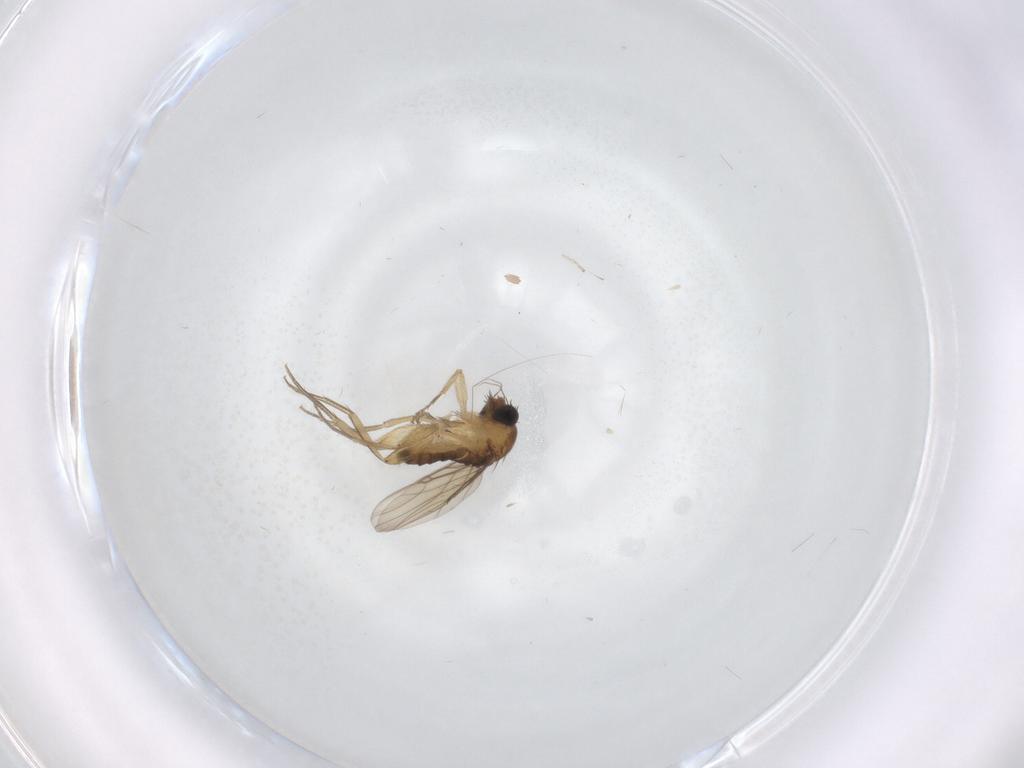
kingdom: Animalia
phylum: Arthropoda
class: Insecta
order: Diptera
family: Phoridae
